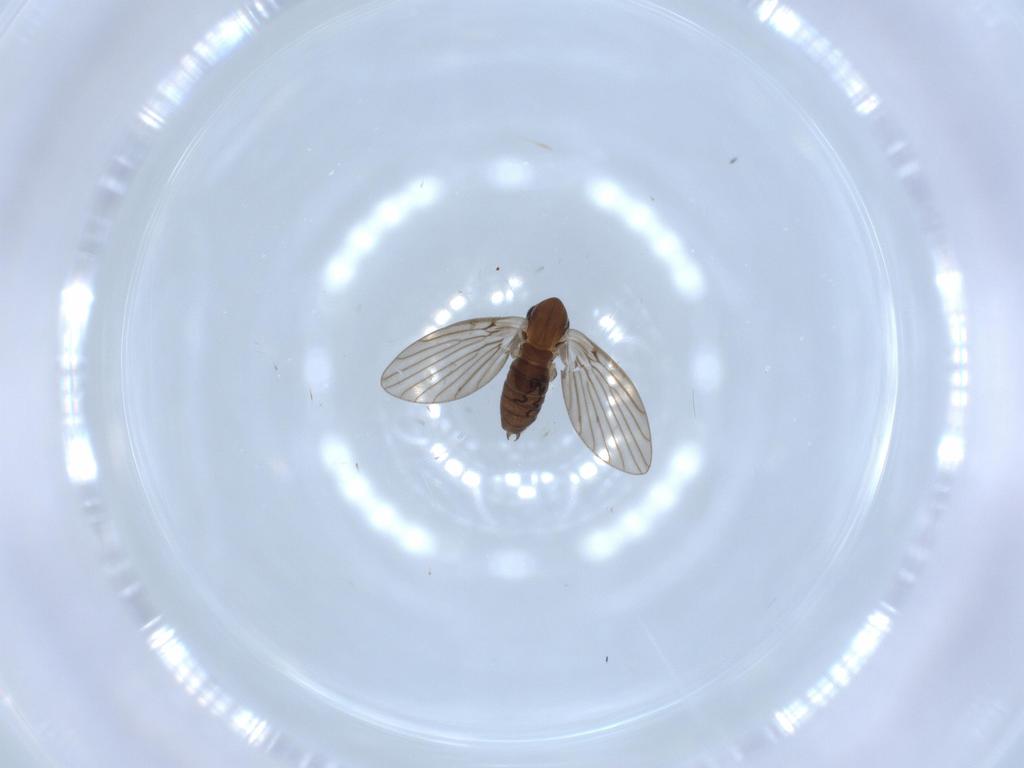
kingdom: Animalia
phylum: Arthropoda
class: Insecta
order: Diptera
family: Psychodidae
